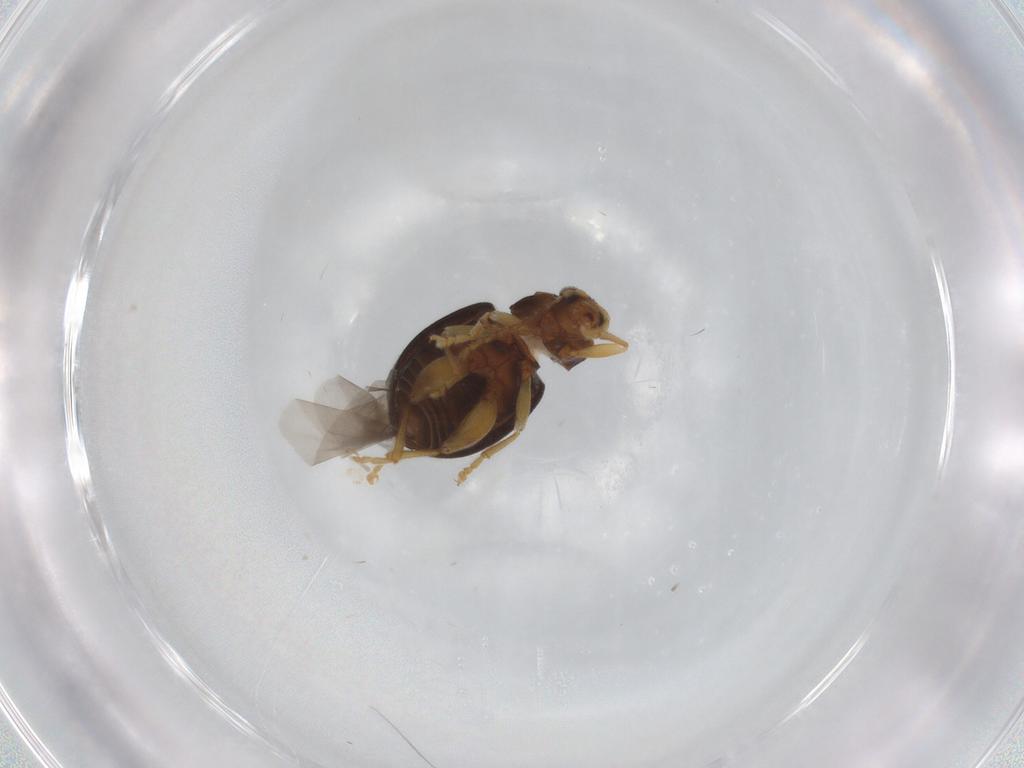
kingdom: Animalia
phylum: Arthropoda
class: Insecta
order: Coleoptera
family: Chrysomelidae
